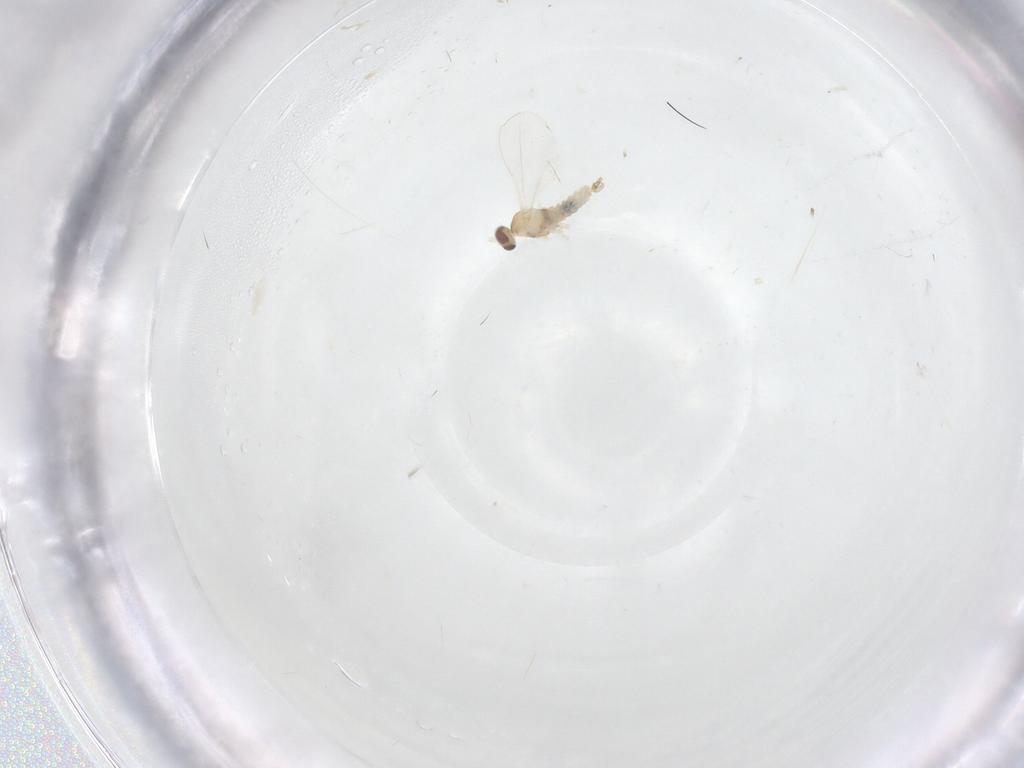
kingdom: Animalia
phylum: Arthropoda
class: Insecta
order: Diptera
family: Cecidomyiidae
